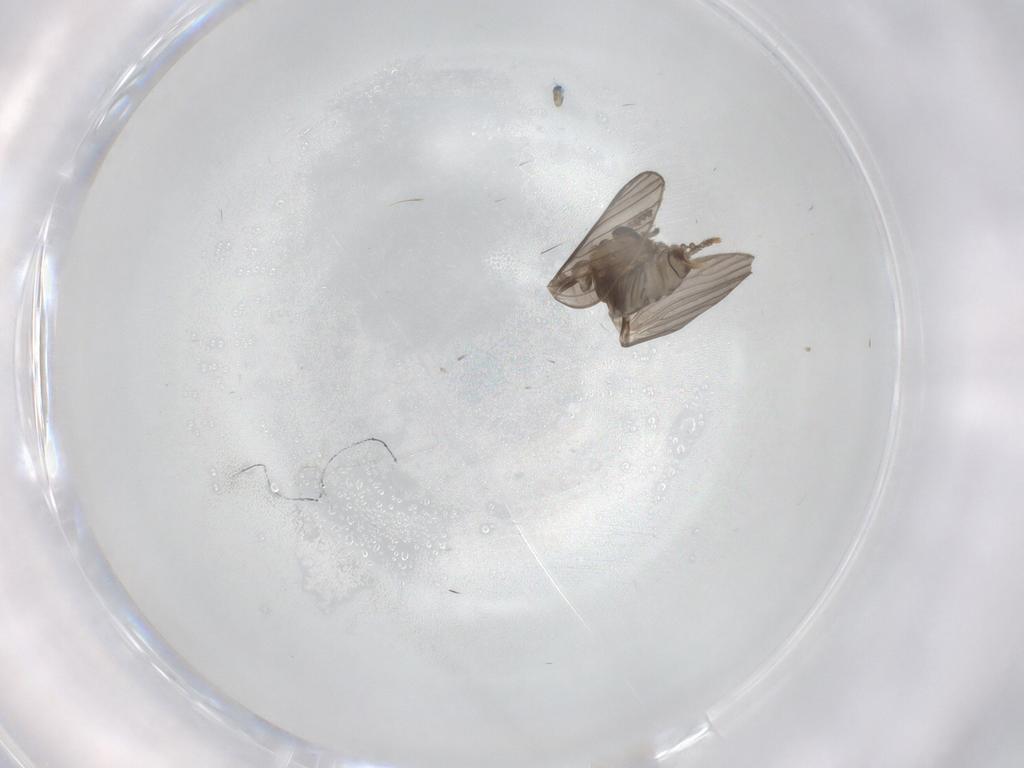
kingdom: Animalia
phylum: Arthropoda
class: Insecta
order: Diptera
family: Psychodidae
